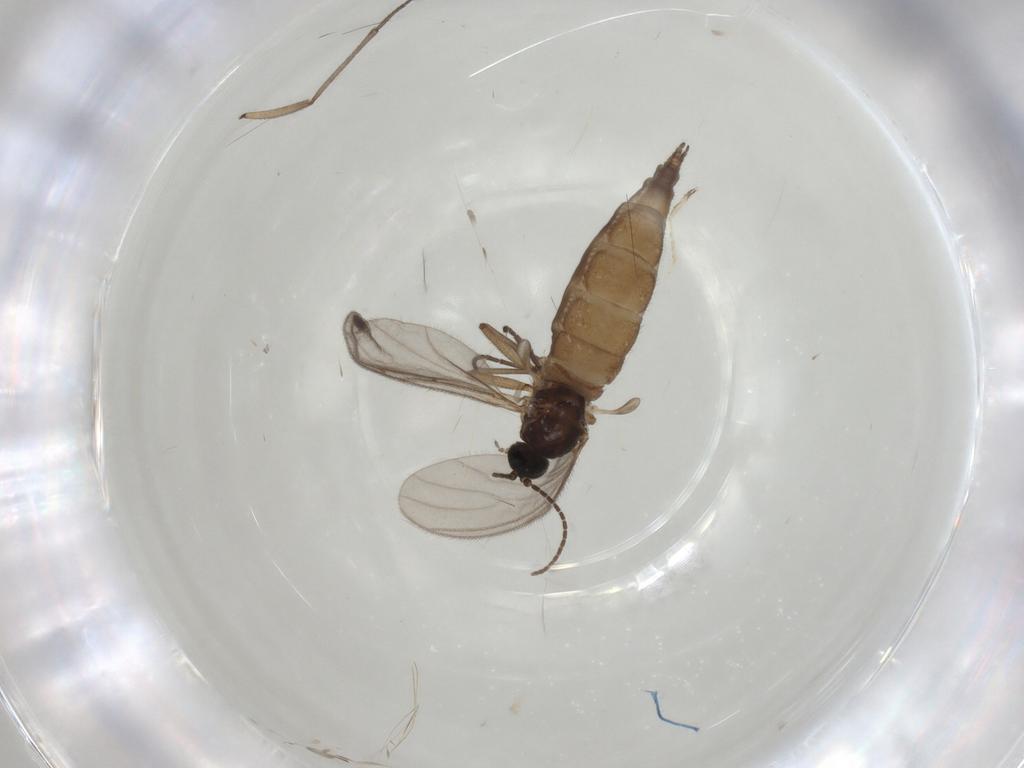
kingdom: Animalia
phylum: Arthropoda
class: Insecta
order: Diptera
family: Sciaridae
